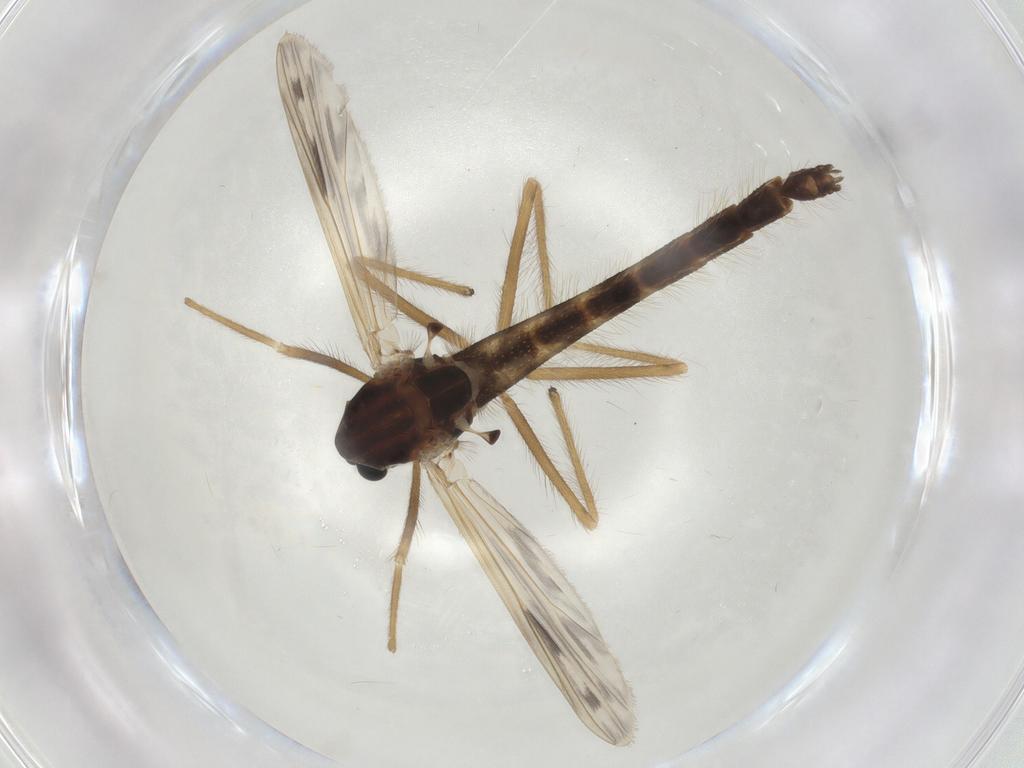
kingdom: Animalia
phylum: Arthropoda
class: Insecta
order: Diptera
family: Chironomidae
